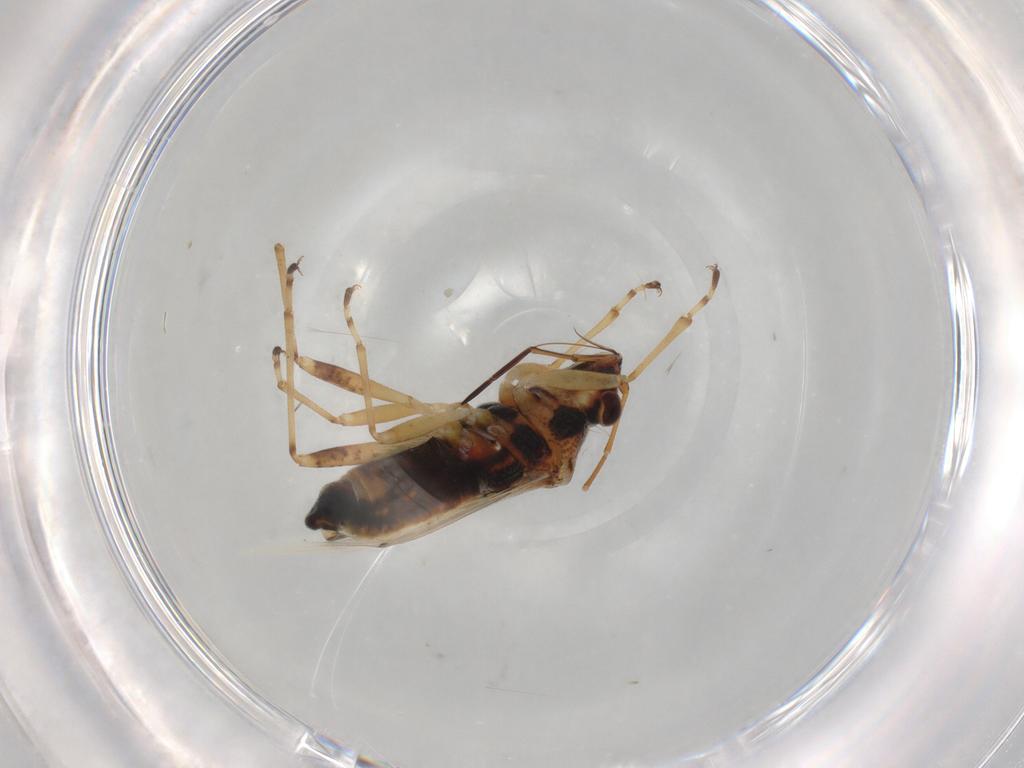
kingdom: Animalia
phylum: Arthropoda
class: Insecta
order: Hemiptera
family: Lygaeidae
